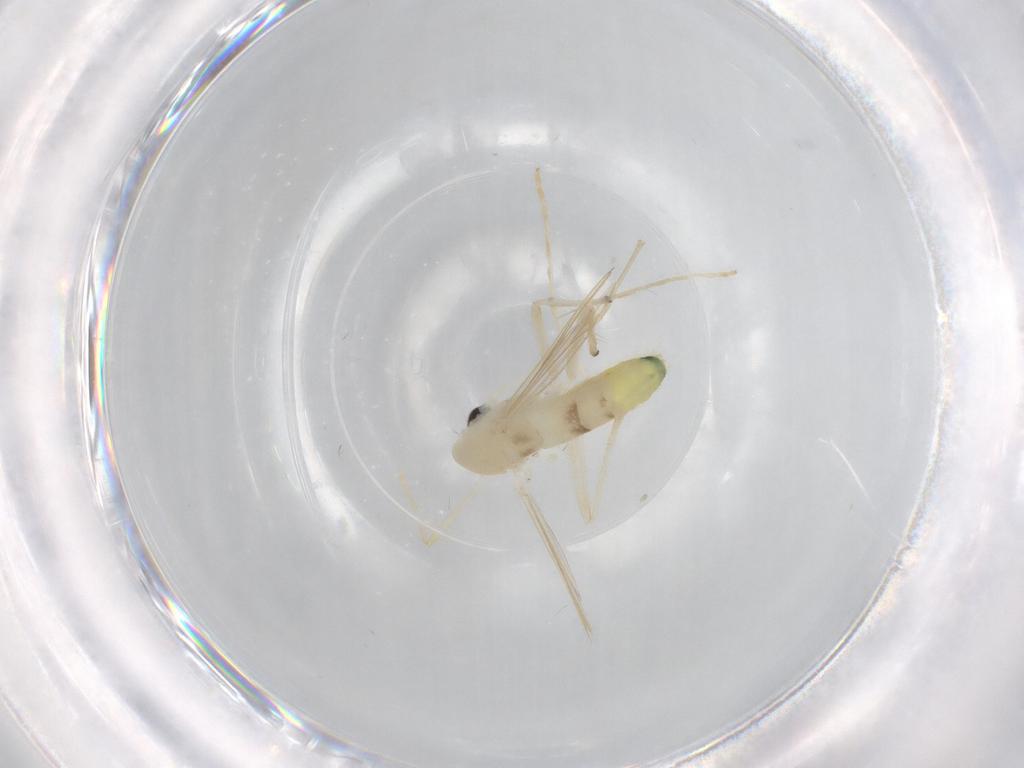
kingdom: Animalia
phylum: Arthropoda
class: Insecta
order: Diptera
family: Chironomidae
